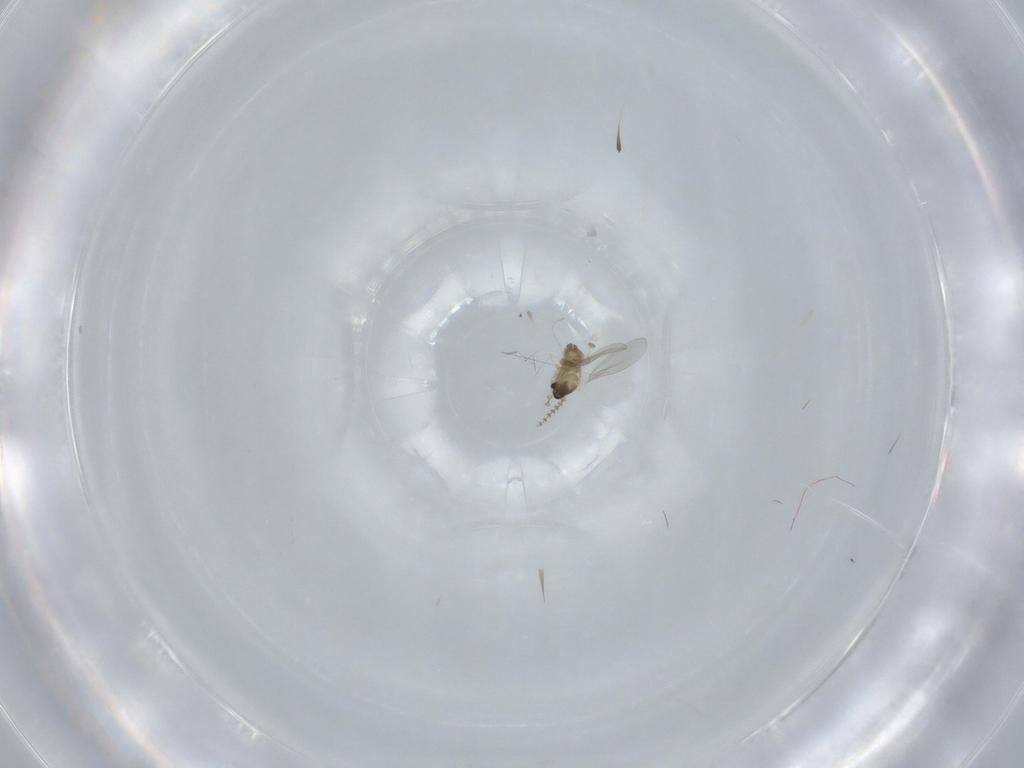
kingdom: Animalia
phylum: Arthropoda
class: Insecta
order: Diptera
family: Cecidomyiidae
